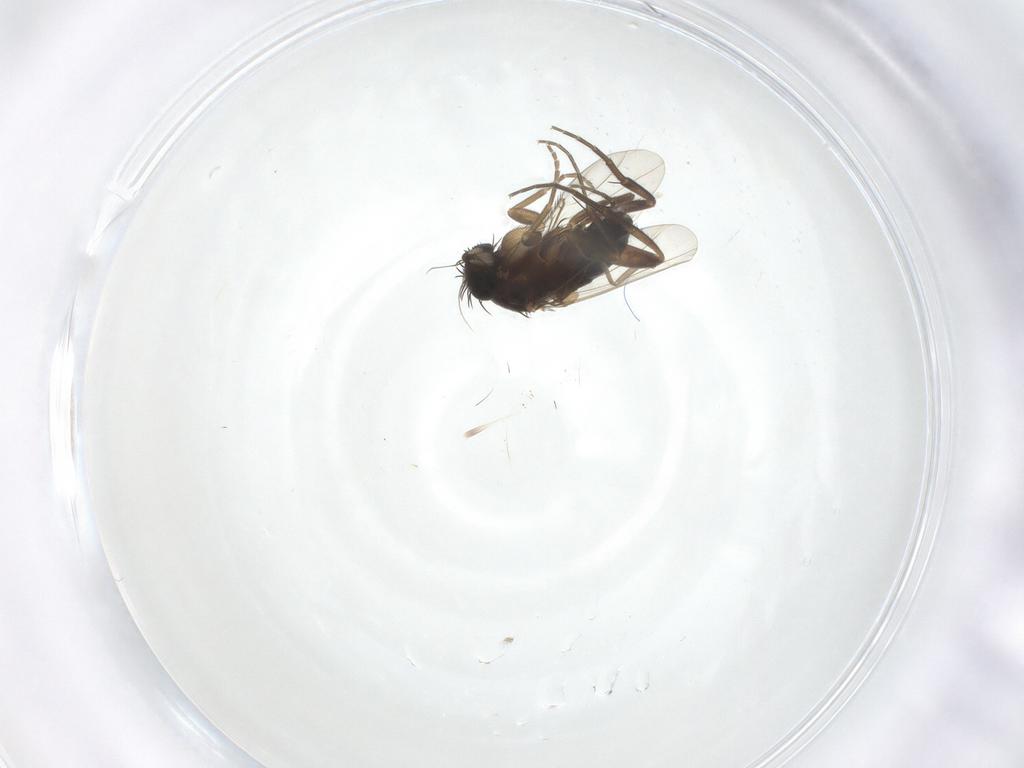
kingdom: Animalia
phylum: Arthropoda
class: Insecta
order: Diptera
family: Phoridae
